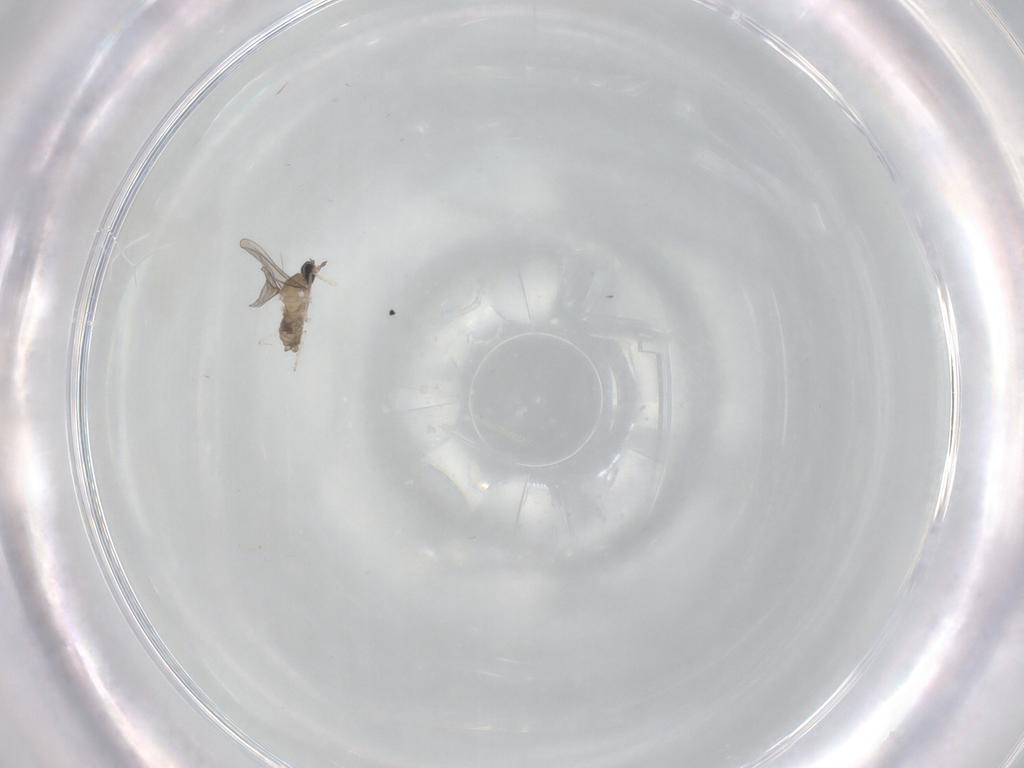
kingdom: Animalia
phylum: Arthropoda
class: Insecta
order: Diptera
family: Cecidomyiidae
